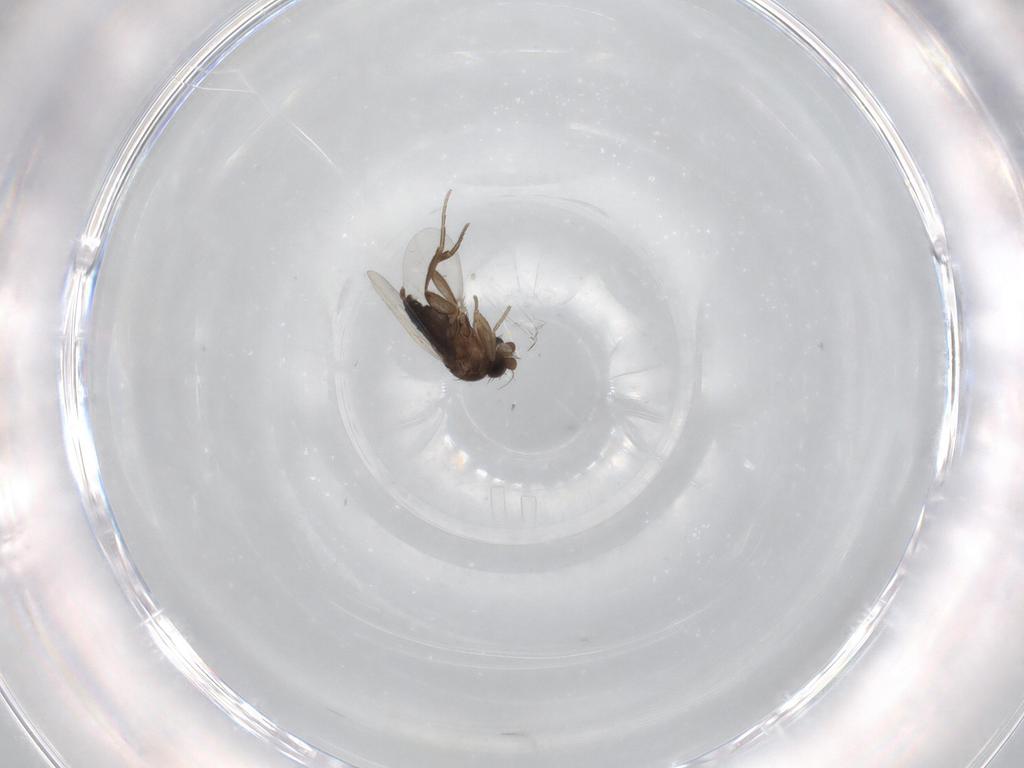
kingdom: Animalia
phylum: Arthropoda
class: Insecta
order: Diptera
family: Phoridae
